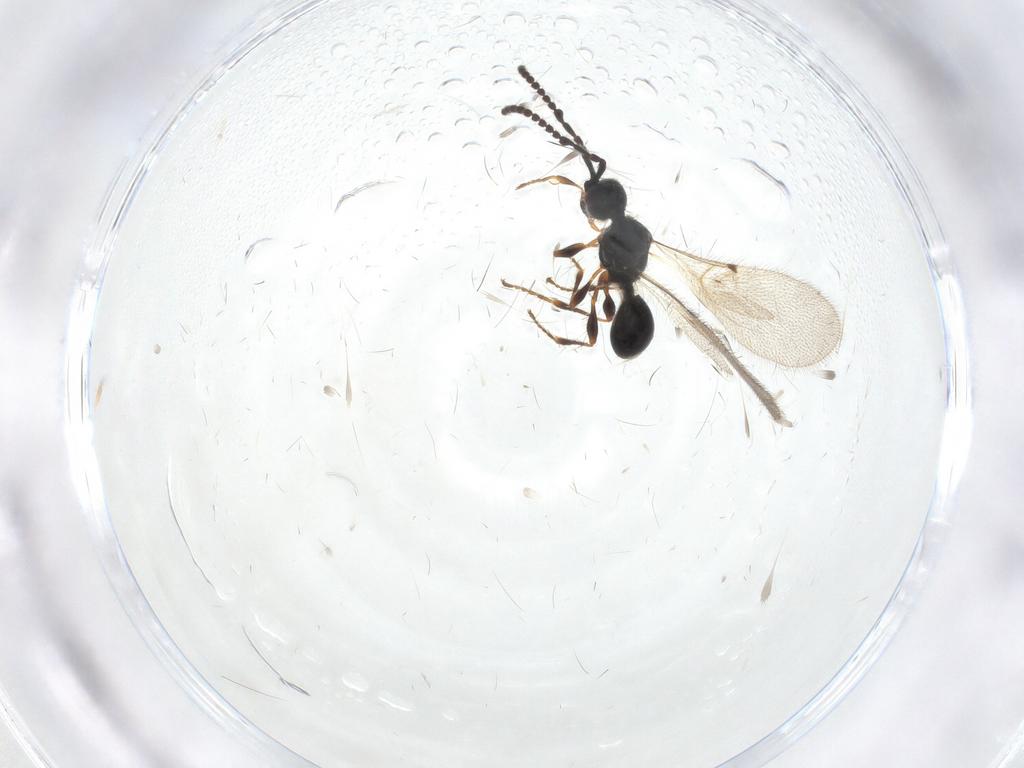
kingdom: Animalia
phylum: Arthropoda
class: Insecta
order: Hymenoptera
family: Diapriidae
